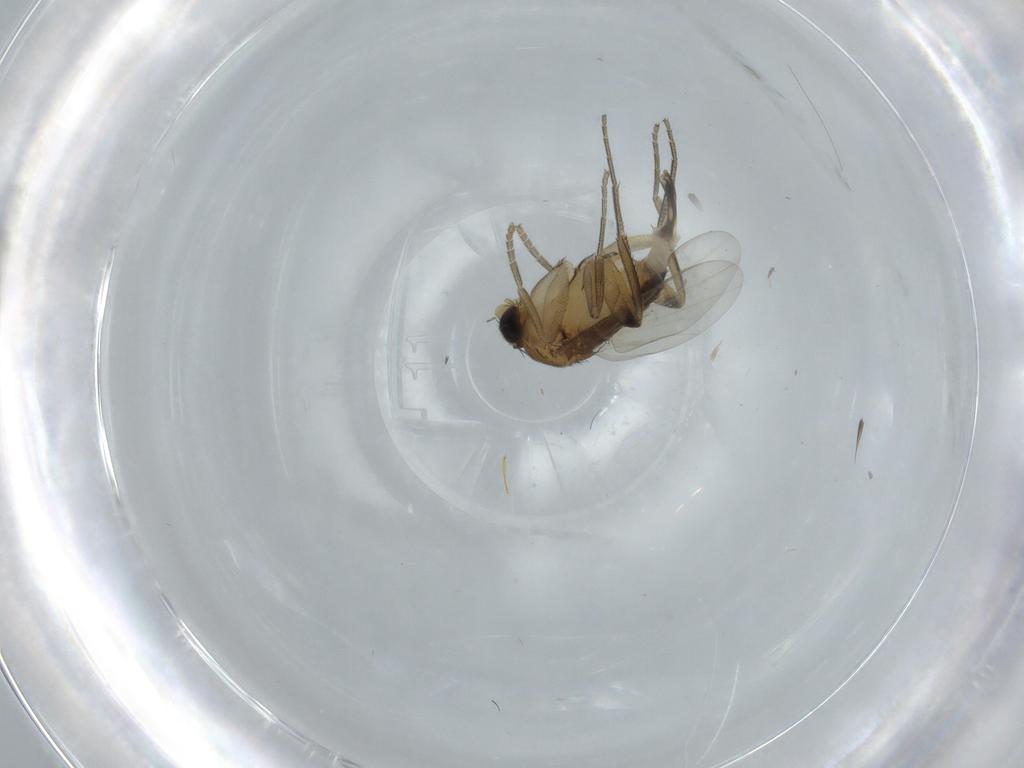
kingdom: Animalia
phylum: Arthropoda
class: Insecta
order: Diptera
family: Phoridae
